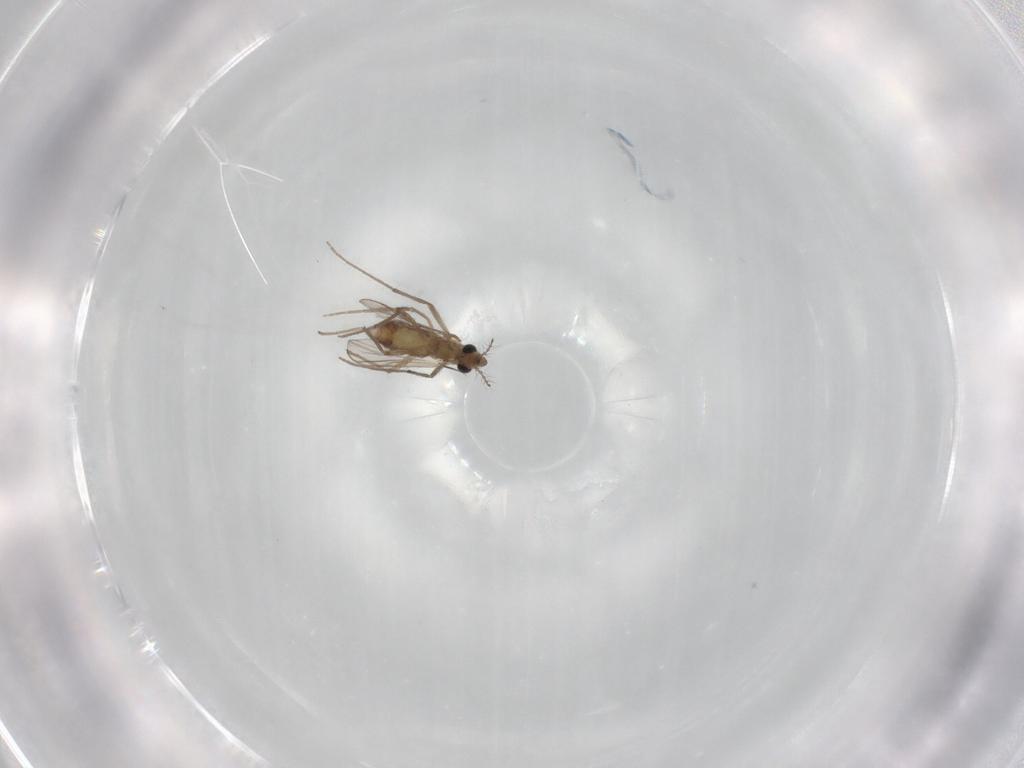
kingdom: Animalia
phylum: Arthropoda
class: Insecta
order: Diptera
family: Chironomidae
